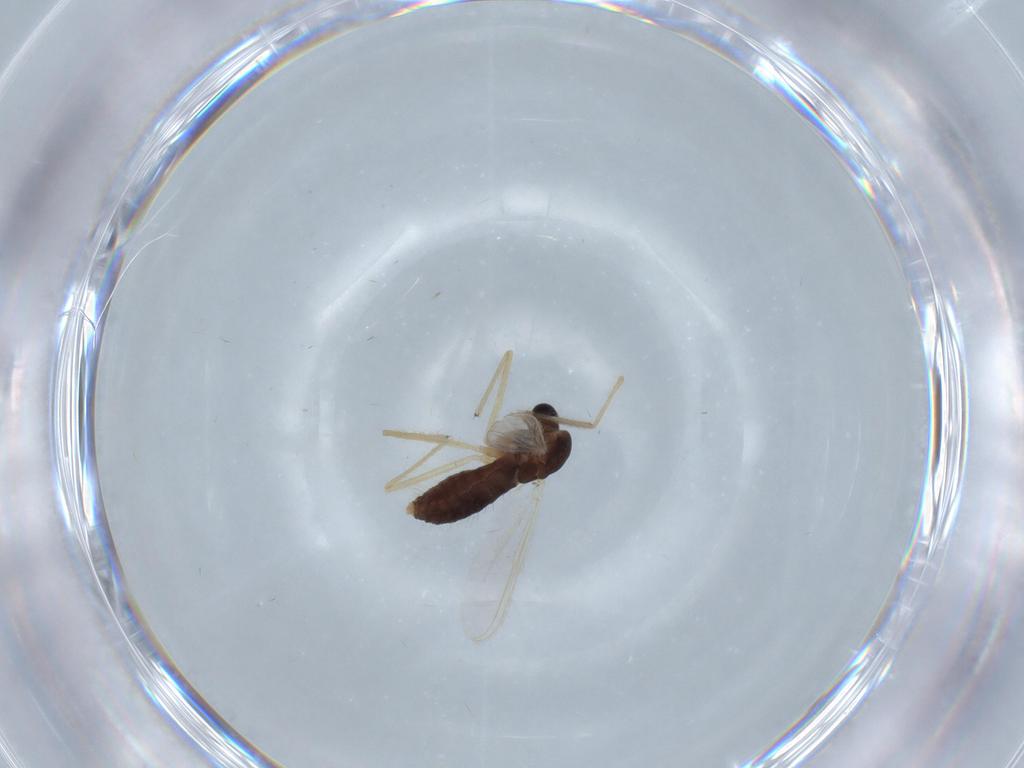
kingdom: Animalia
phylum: Arthropoda
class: Insecta
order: Diptera
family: Chironomidae
